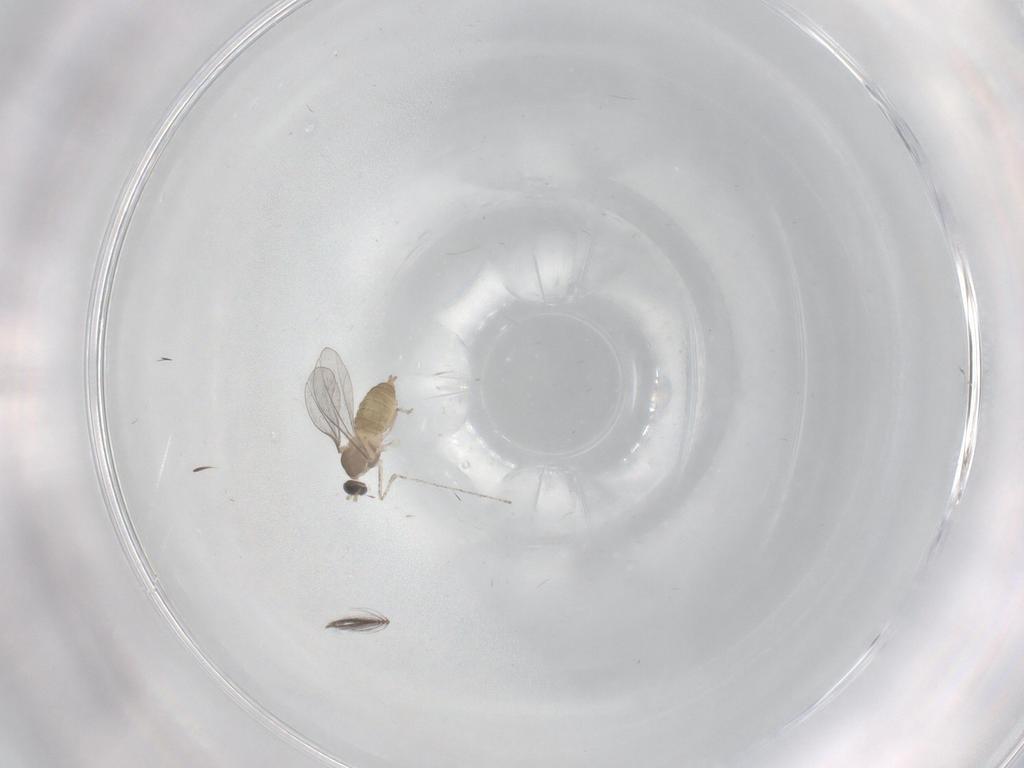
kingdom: Animalia
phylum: Arthropoda
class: Insecta
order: Diptera
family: Cecidomyiidae
